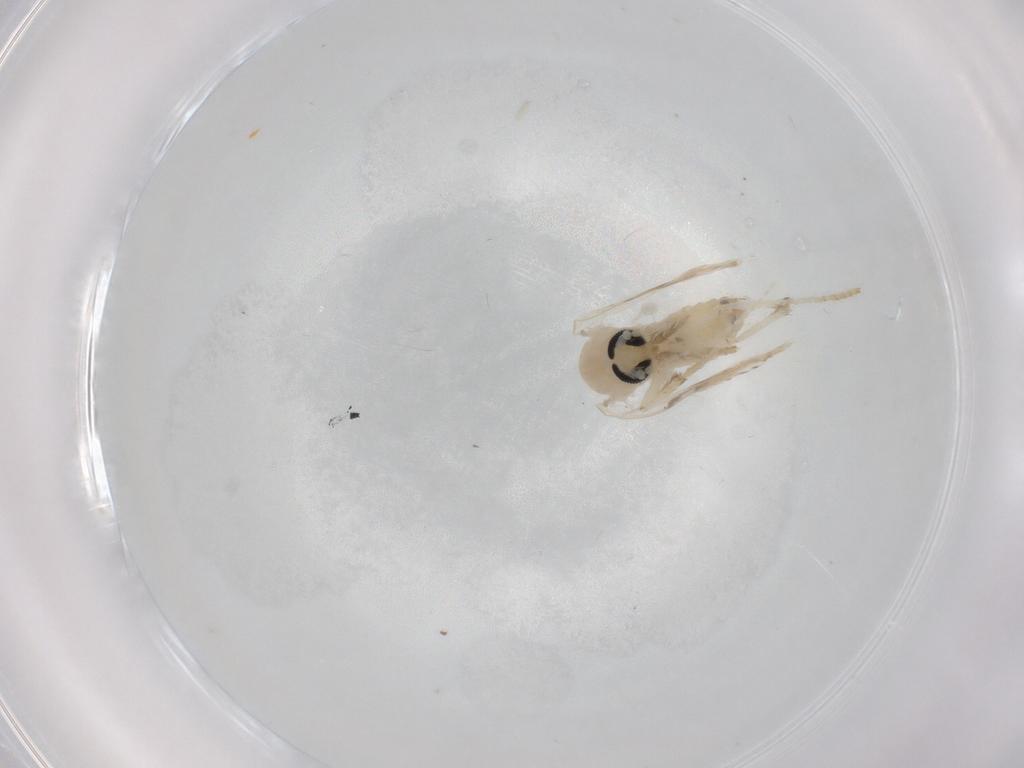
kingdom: Animalia
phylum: Arthropoda
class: Insecta
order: Diptera
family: Psychodidae
